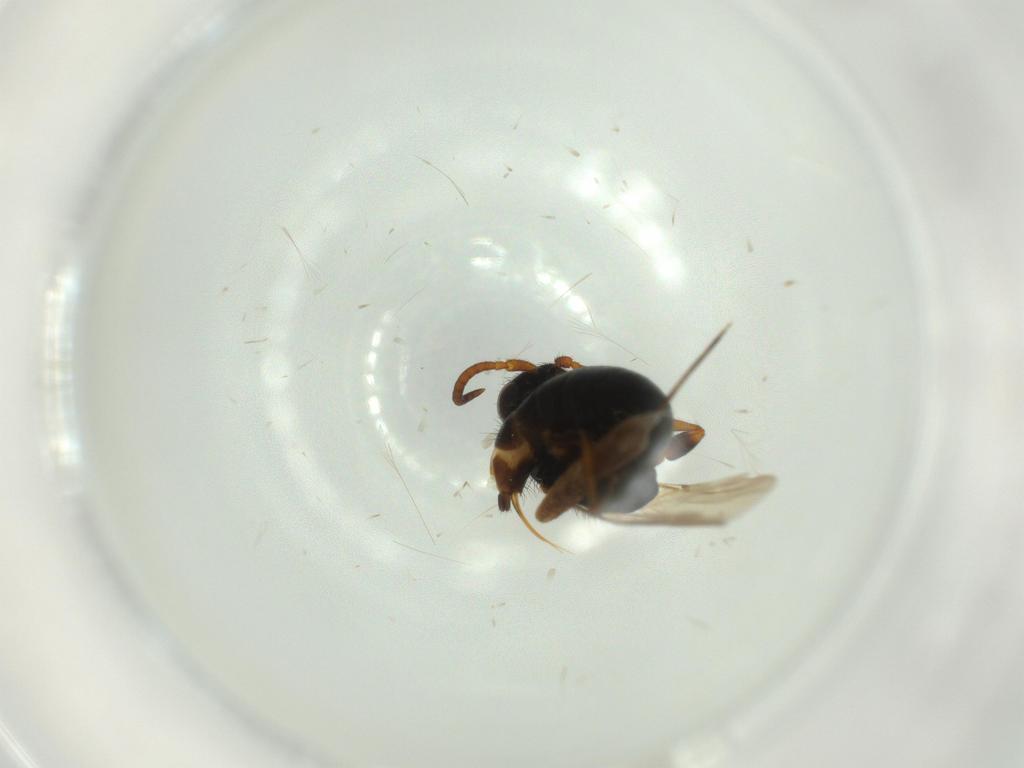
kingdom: Animalia
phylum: Arthropoda
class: Insecta
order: Hymenoptera
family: Bethylidae
